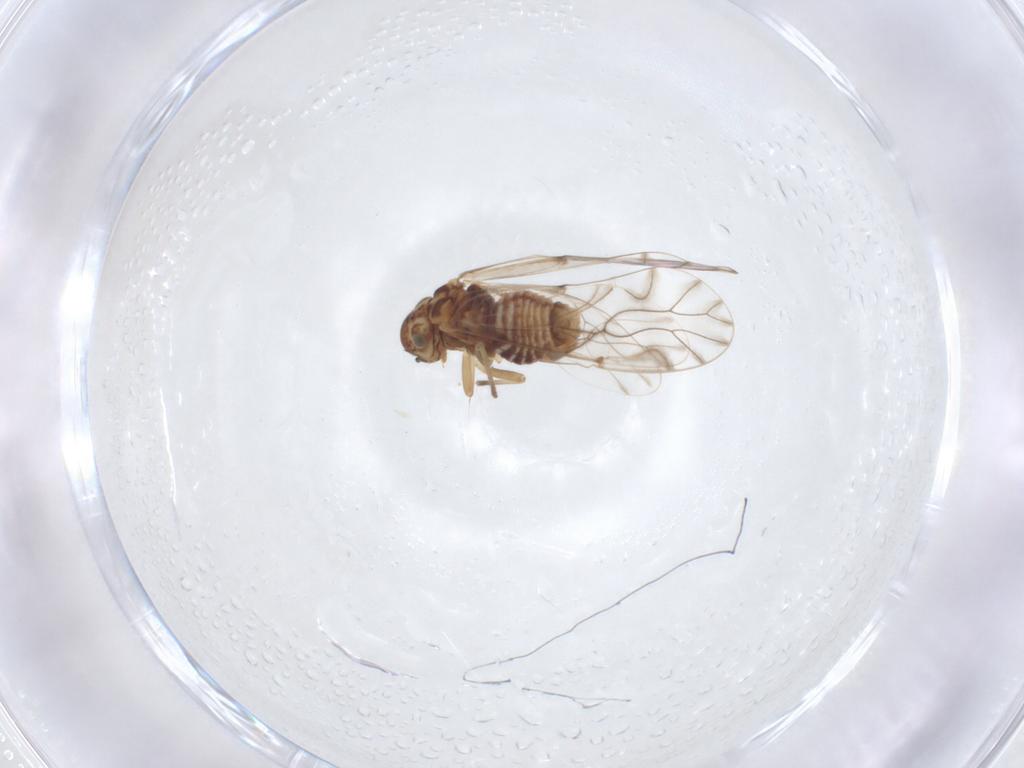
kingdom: Animalia
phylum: Arthropoda
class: Insecta
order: Psocodea
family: Lachesillidae
